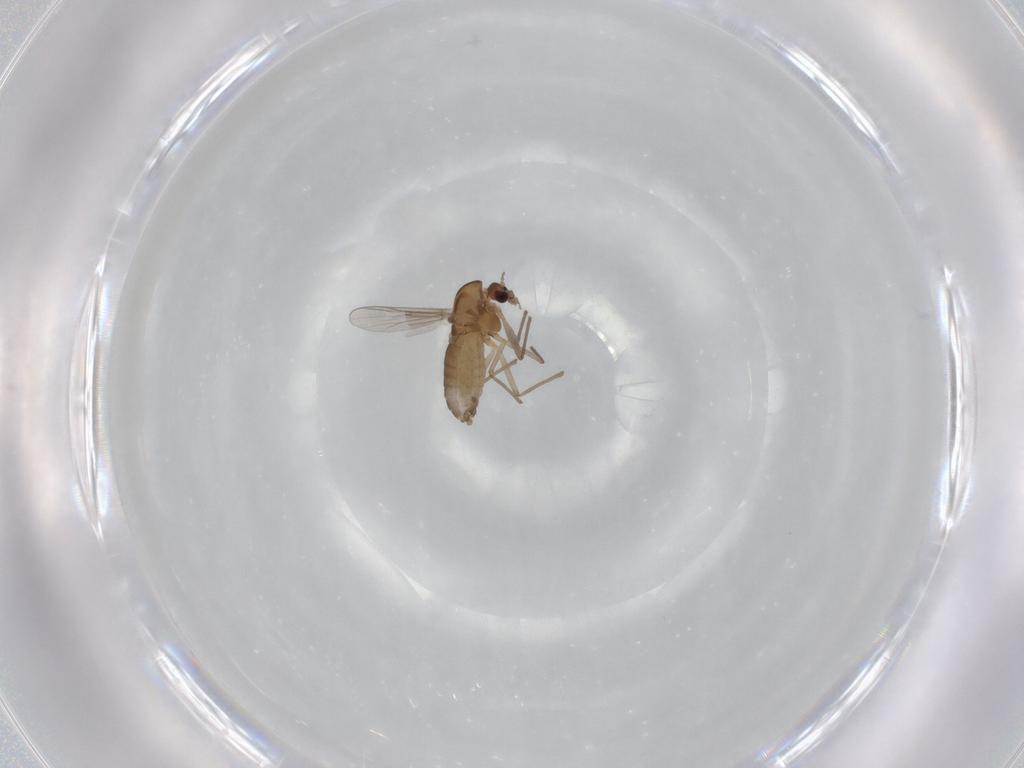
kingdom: Animalia
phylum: Arthropoda
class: Insecta
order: Diptera
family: Chironomidae
